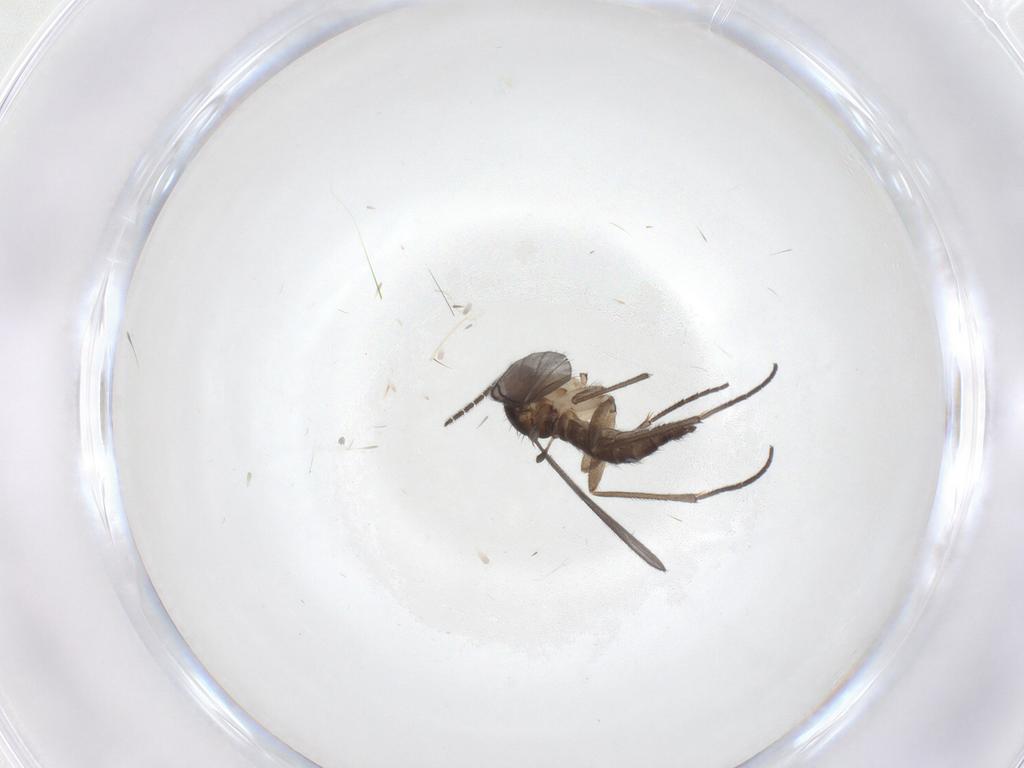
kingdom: Animalia
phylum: Arthropoda
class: Insecta
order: Diptera
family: Sciaridae
